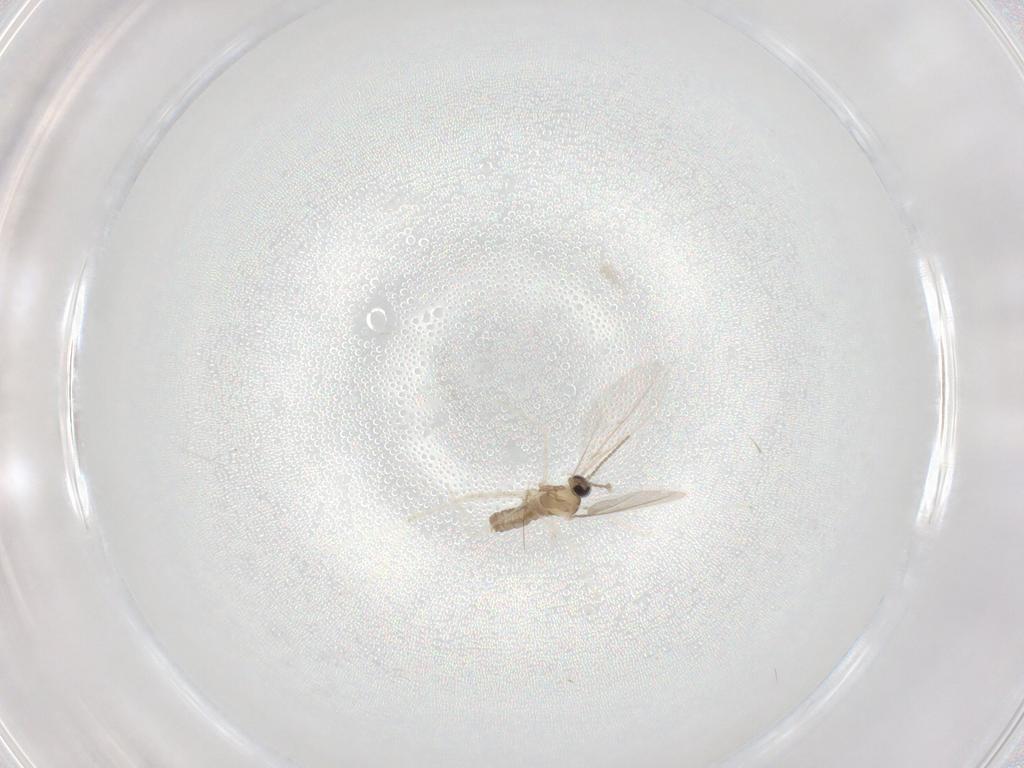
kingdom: Animalia
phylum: Arthropoda
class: Insecta
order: Diptera
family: Cecidomyiidae
